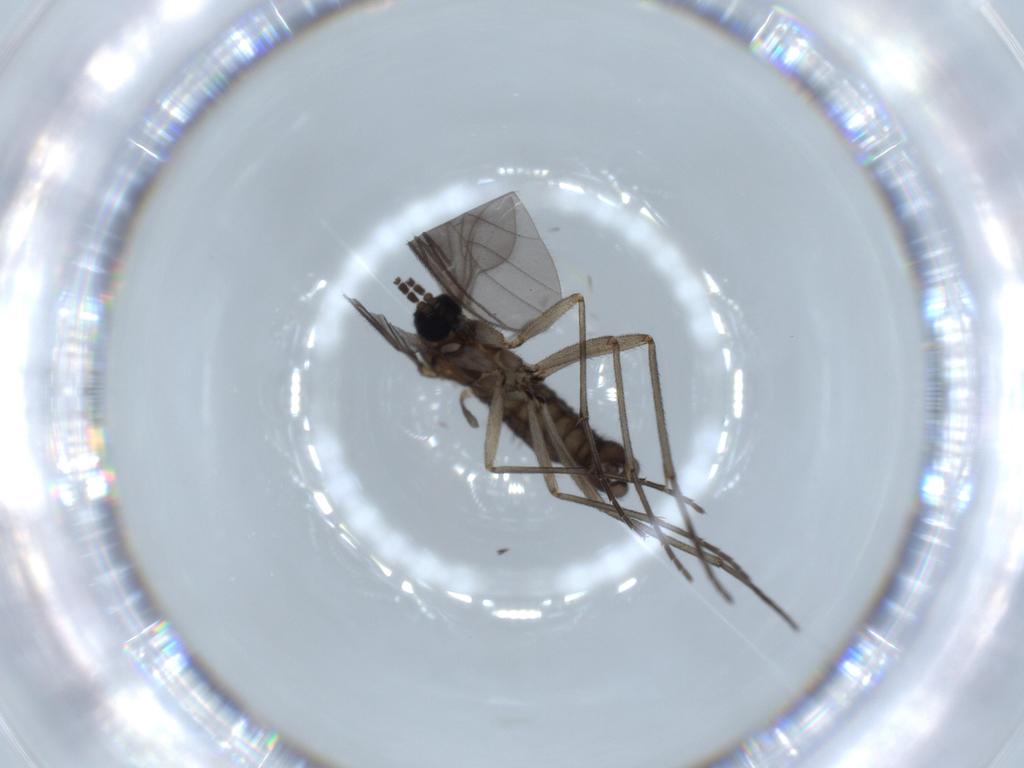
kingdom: Animalia
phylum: Arthropoda
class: Insecta
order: Diptera
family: Sciaridae
